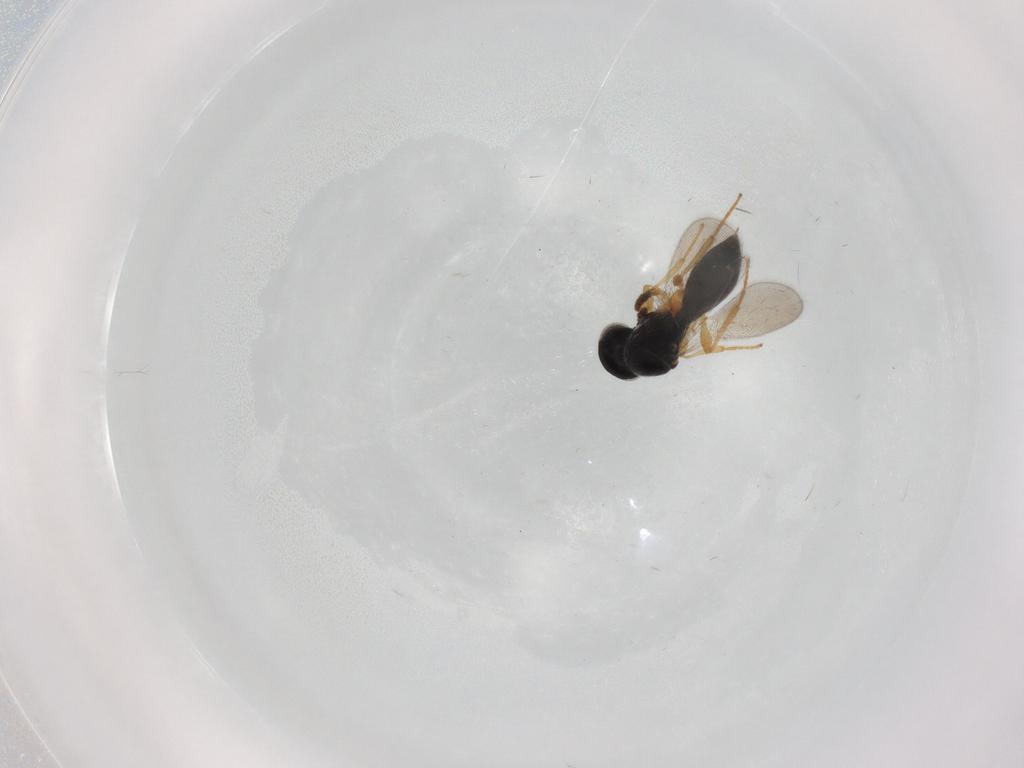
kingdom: Animalia
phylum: Arthropoda
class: Insecta
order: Hymenoptera
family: Platygastridae
